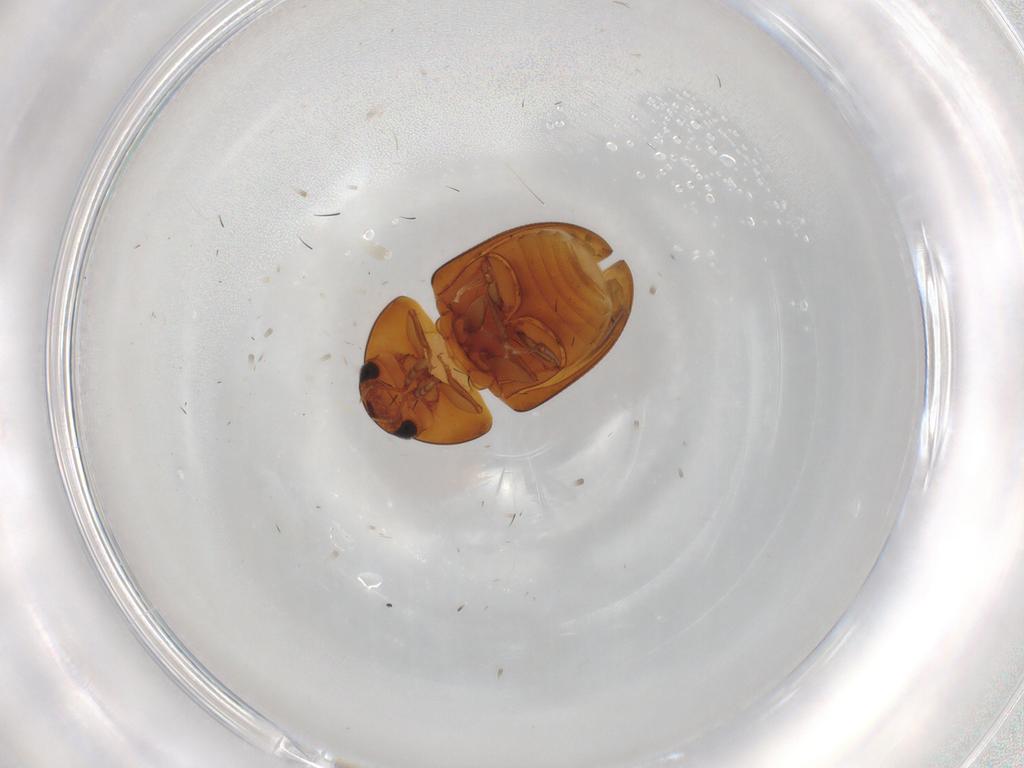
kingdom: Animalia
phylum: Arthropoda
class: Insecta
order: Coleoptera
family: Phalacridae
